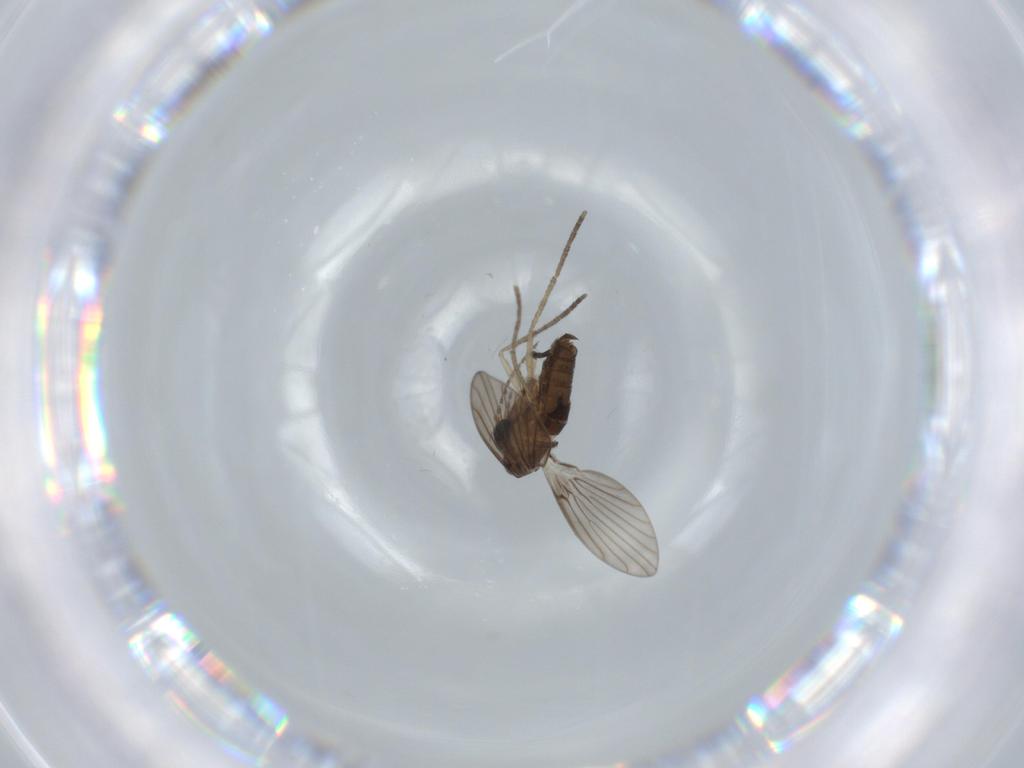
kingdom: Animalia
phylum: Arthropoda
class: Insecta
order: Diptera
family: Psychodidae
